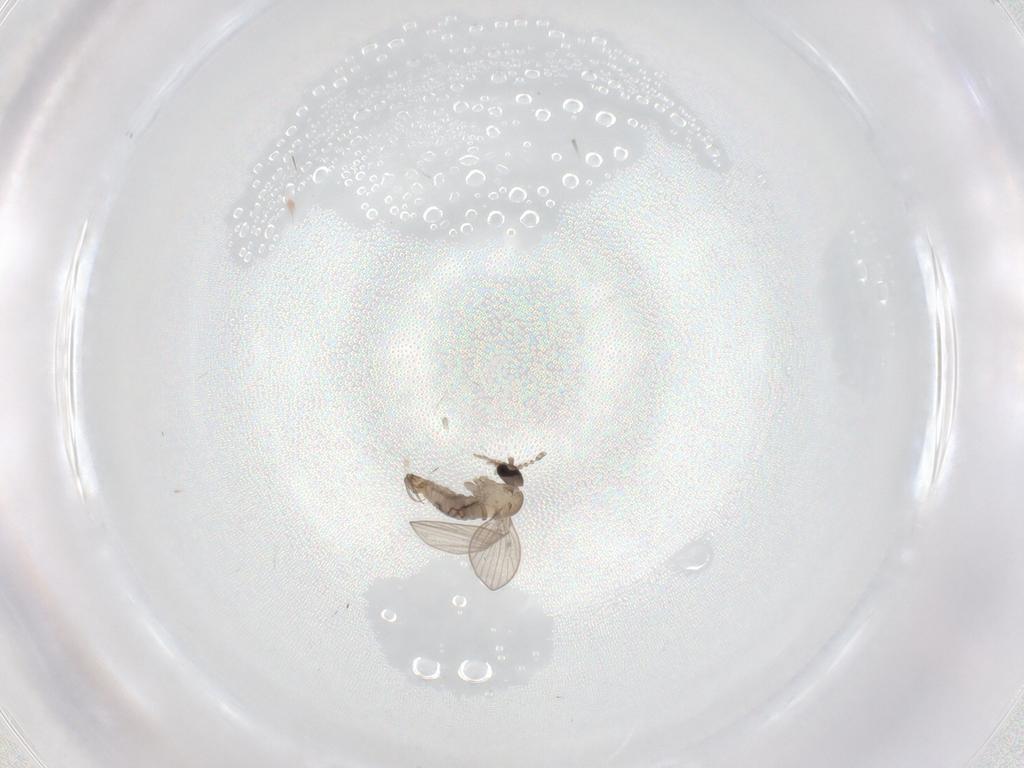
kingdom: Animalia
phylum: Arthropoda
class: Insecta
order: Diptera
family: Psychodidae
